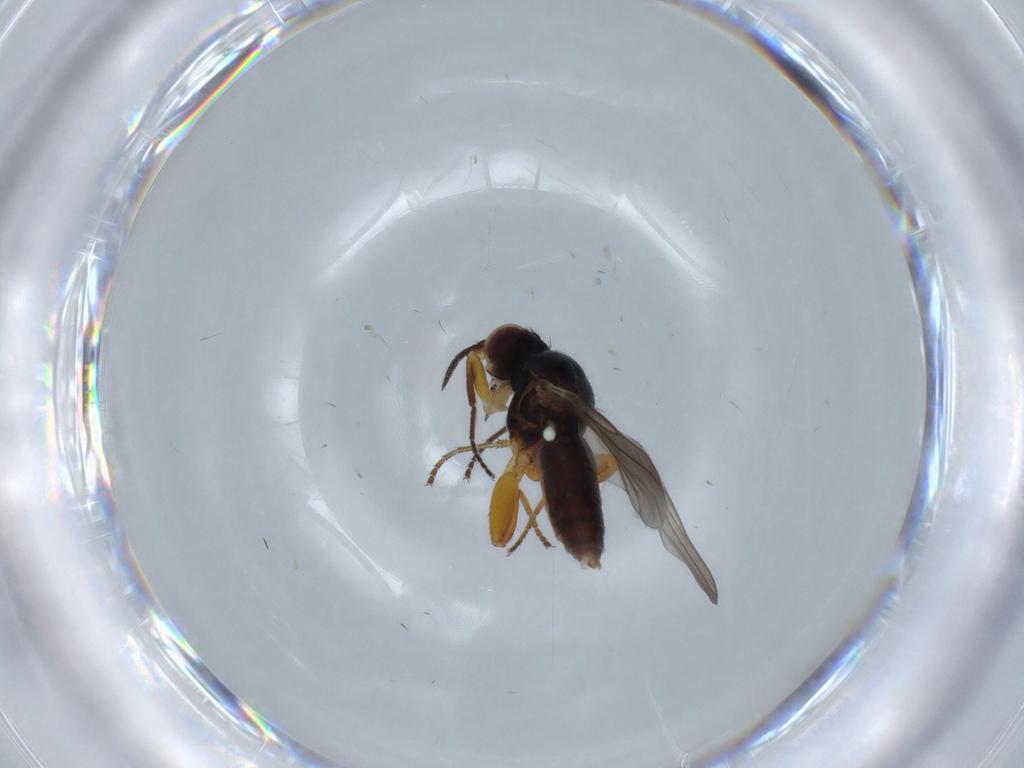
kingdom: Animalia
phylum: Arthropoda
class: Insecta
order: Diptera
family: Chloropidae
